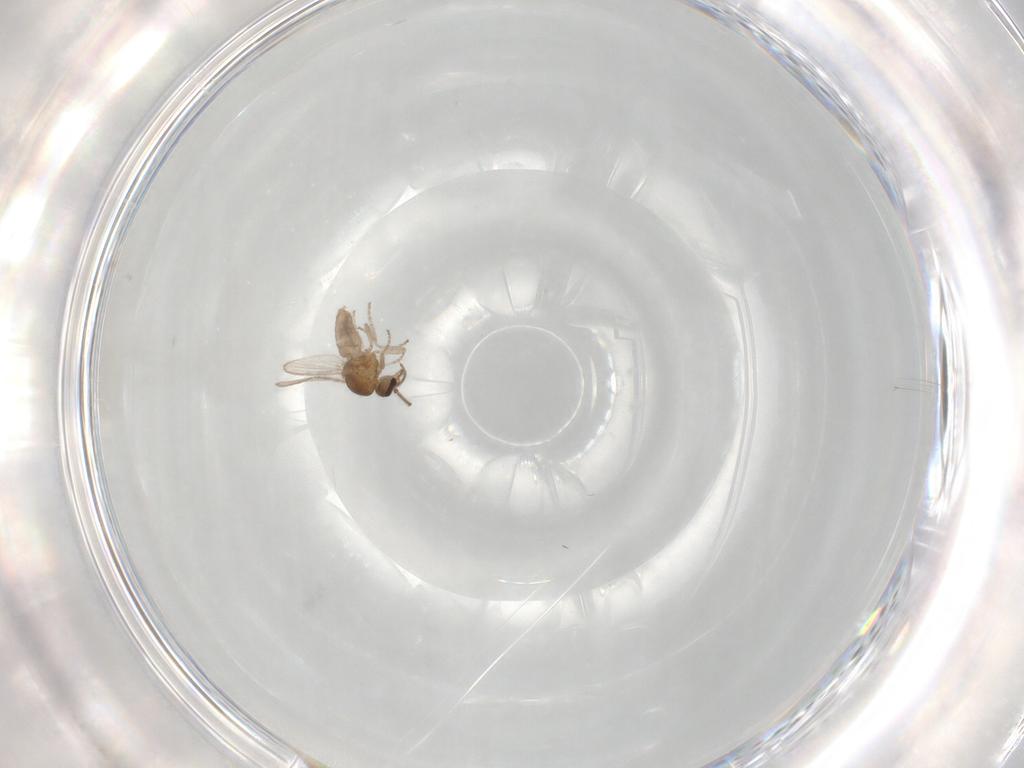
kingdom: Animalia
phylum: Arthropoda
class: Insecta
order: Diptera
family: Ceratopogonidae
